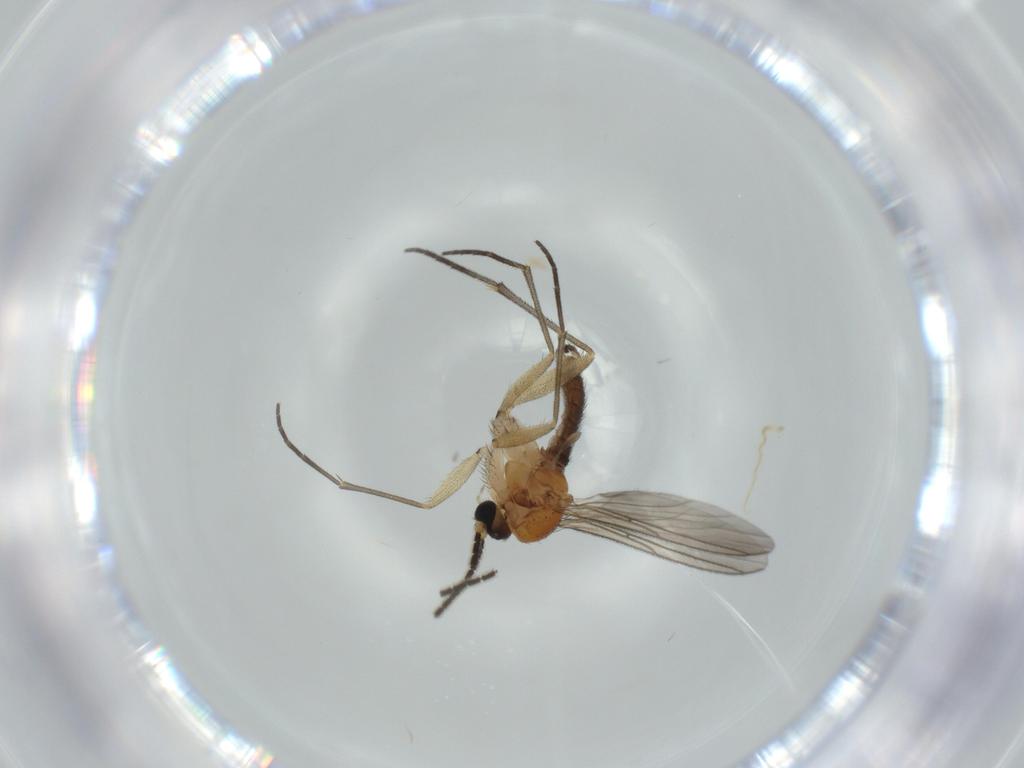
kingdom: Animalia
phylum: Arthropoda
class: Insecta
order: Diptera
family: Sciaridae
